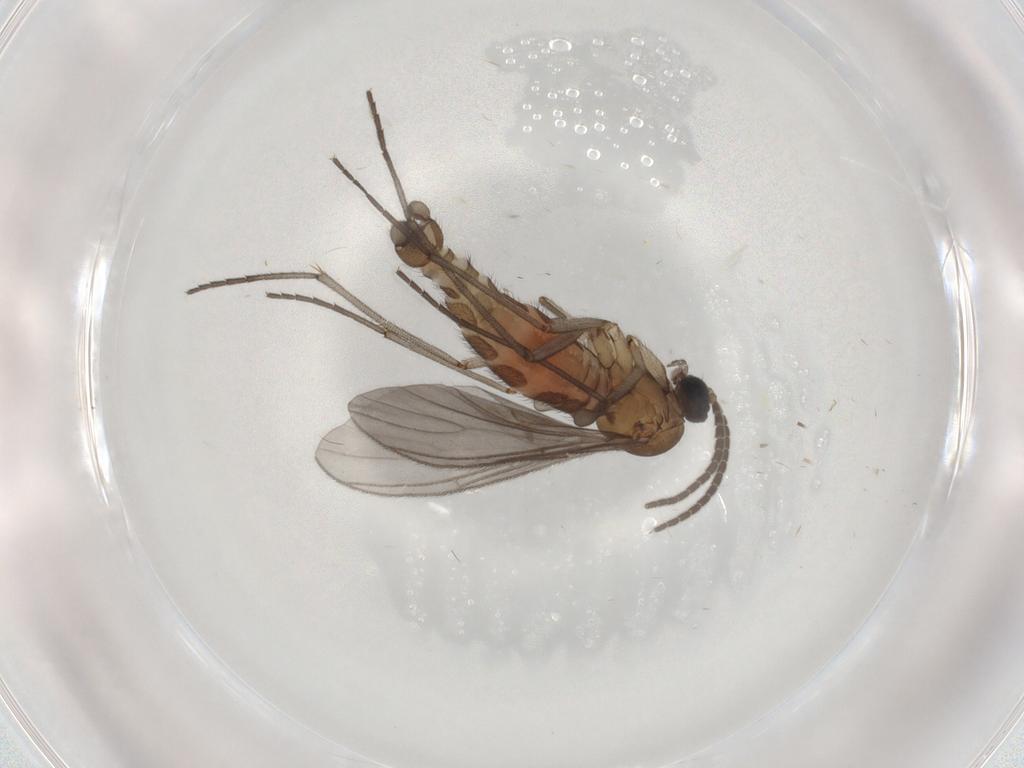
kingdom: Animalia
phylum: Arthropoda
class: Insecta
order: Diptera
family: Sciaridae
